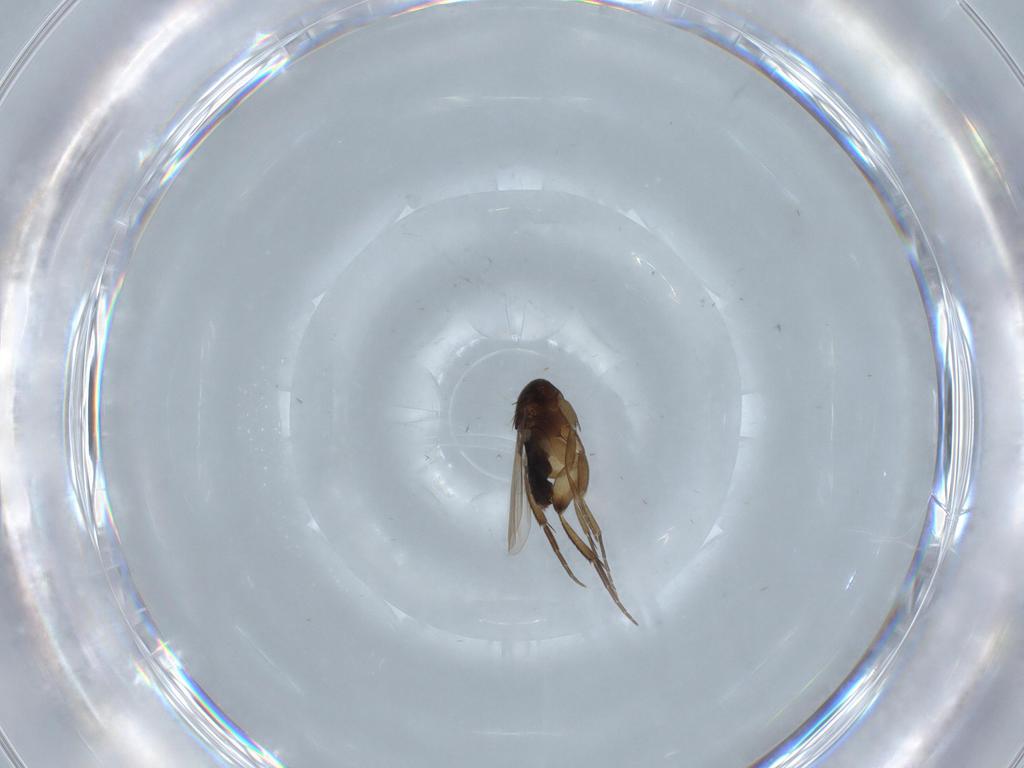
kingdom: Animalia
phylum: Arthropoda
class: Insecta
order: Diptera
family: Phoridae
